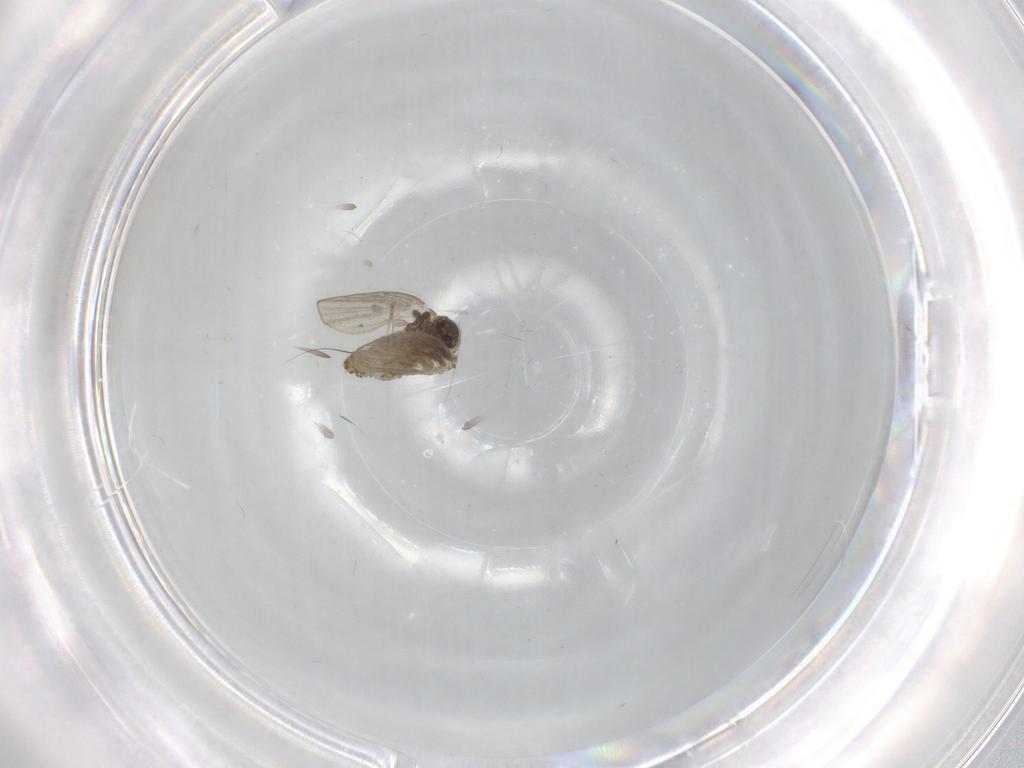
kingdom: Animalia
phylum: Arthropoda
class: Insecta
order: Diptera
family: Psychodidae
